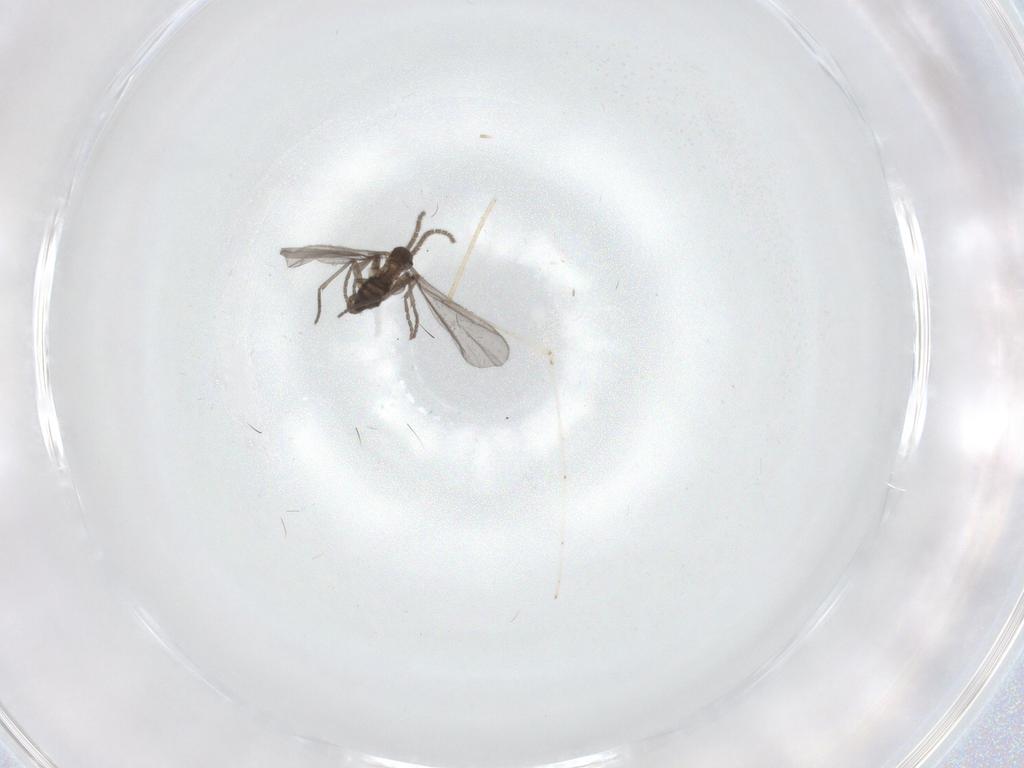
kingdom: Animalia
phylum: Arthropoda
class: Insecta
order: Diptera
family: Sciaridae
